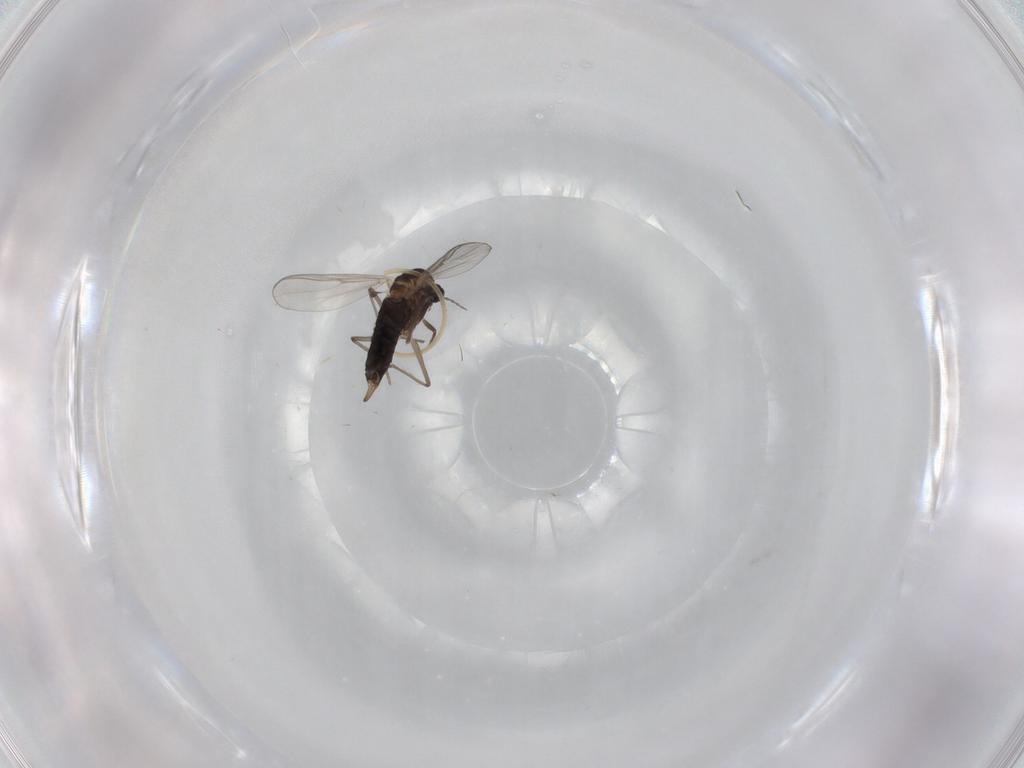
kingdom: Animalia
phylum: Arthropoda
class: Insecta
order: Diptera
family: Chironomidae
